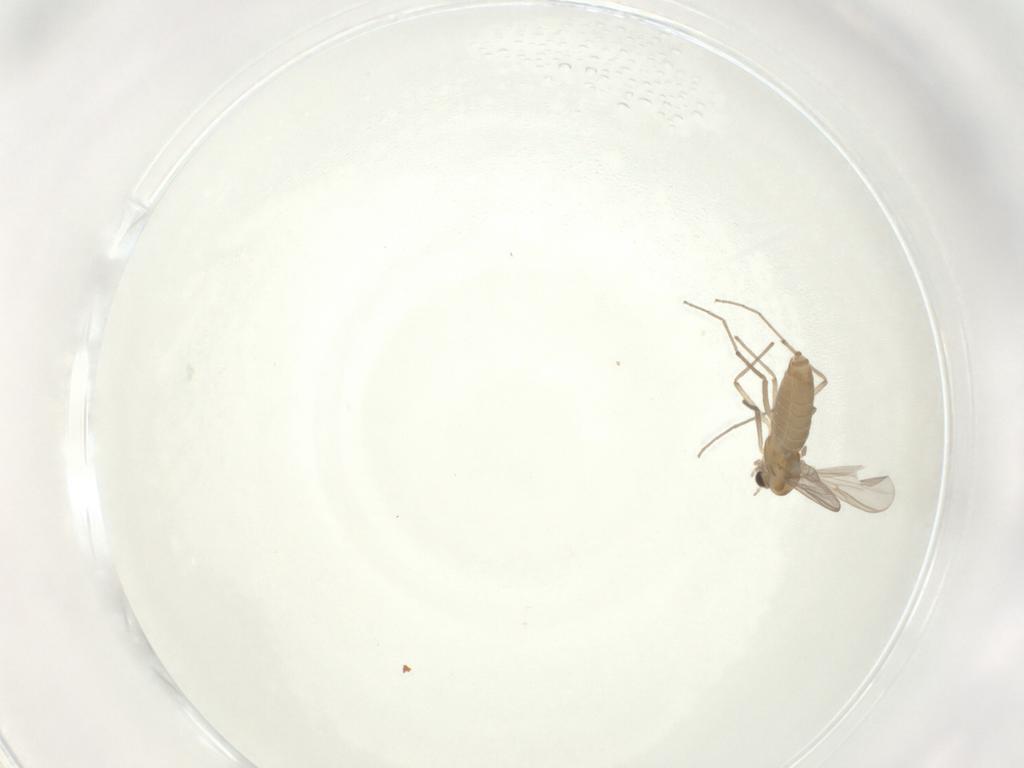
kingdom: Animalia
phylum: Arthropoda
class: Insecta
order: Diptera
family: Chironomidae
